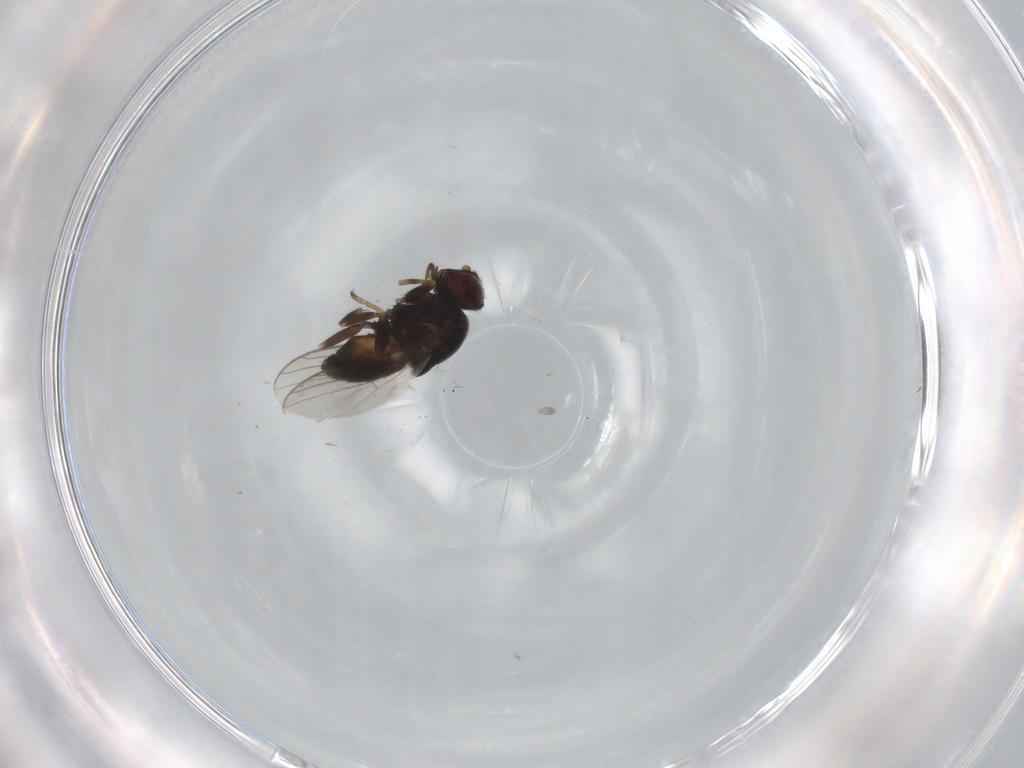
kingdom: Animalia
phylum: Arthropoda
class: Insecta
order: Diptera
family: Chloropidae
